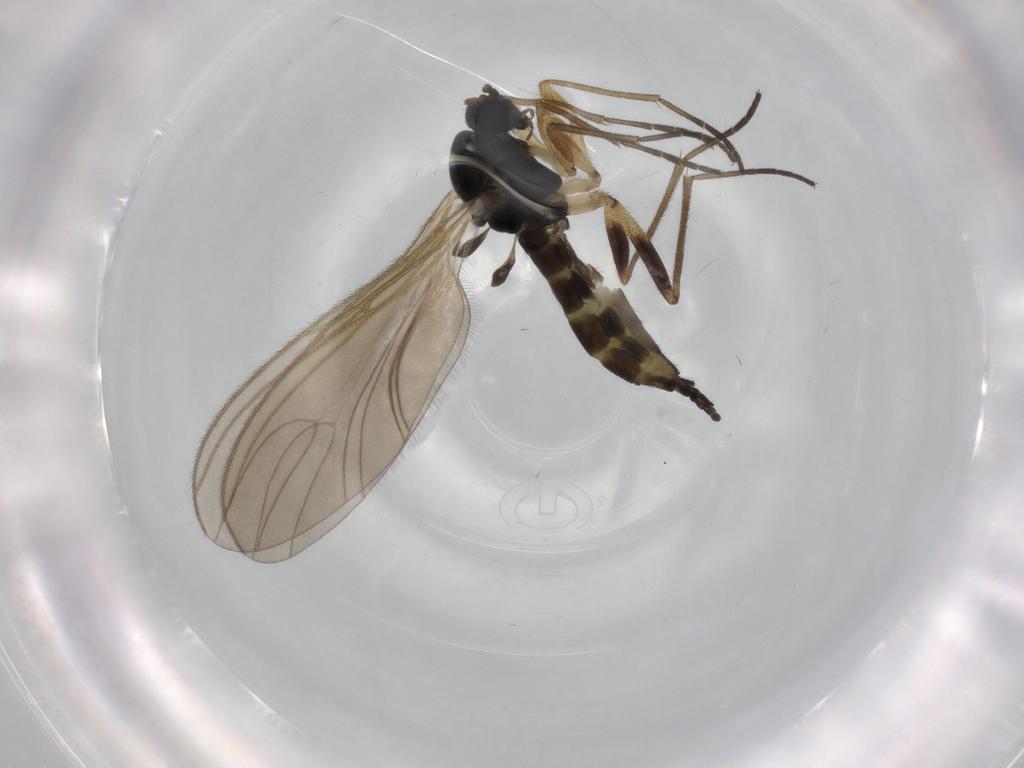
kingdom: Animalia
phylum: Arthropoda
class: Insecta
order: Diptera
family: Sciaridae
